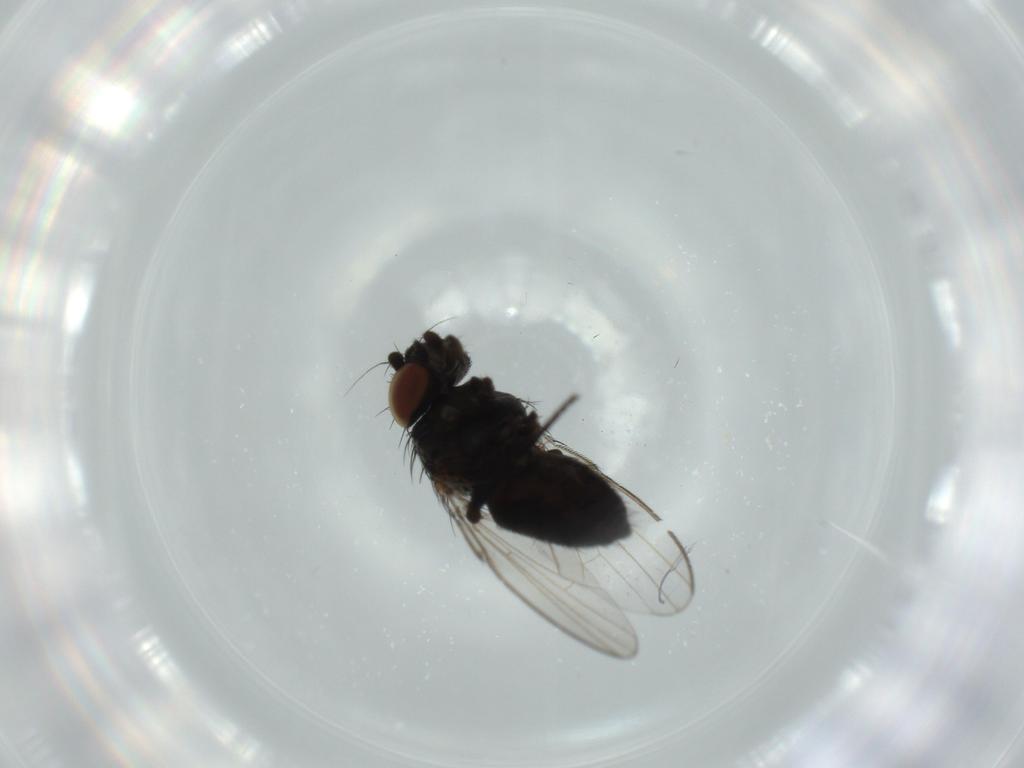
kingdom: Animalia
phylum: Arthropoda
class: Insecta
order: Diptera
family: Milichiidae
